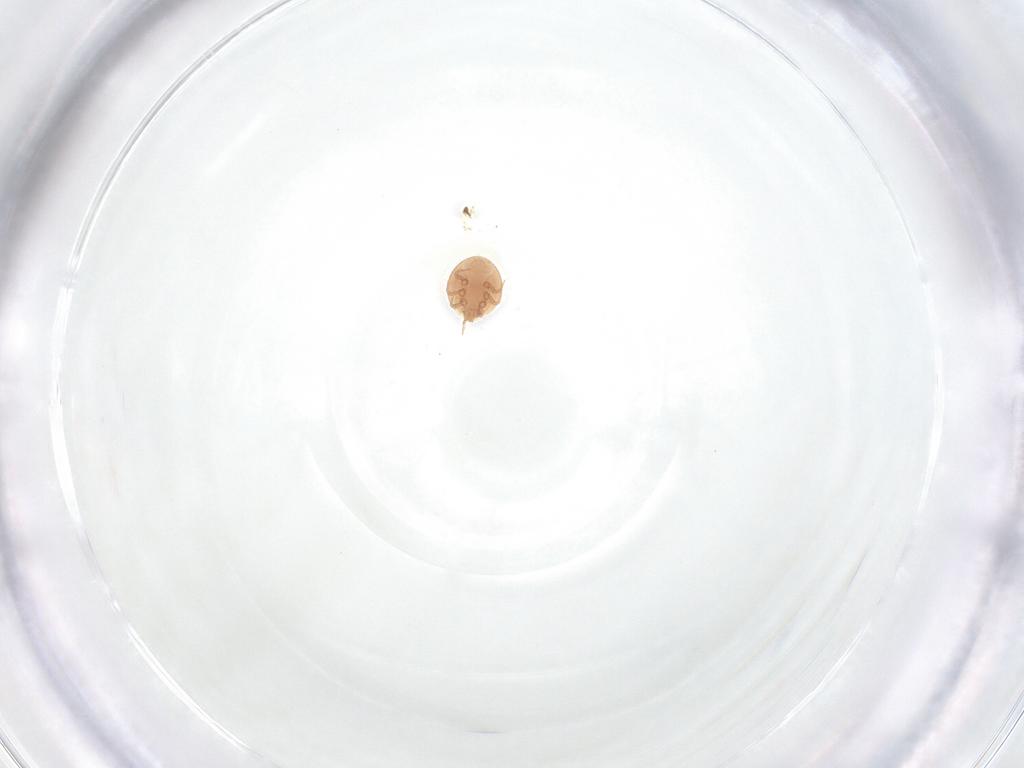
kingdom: Animalia
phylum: Arthropoda
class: Arachnida
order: Mesostigmata
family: Trematuridae
